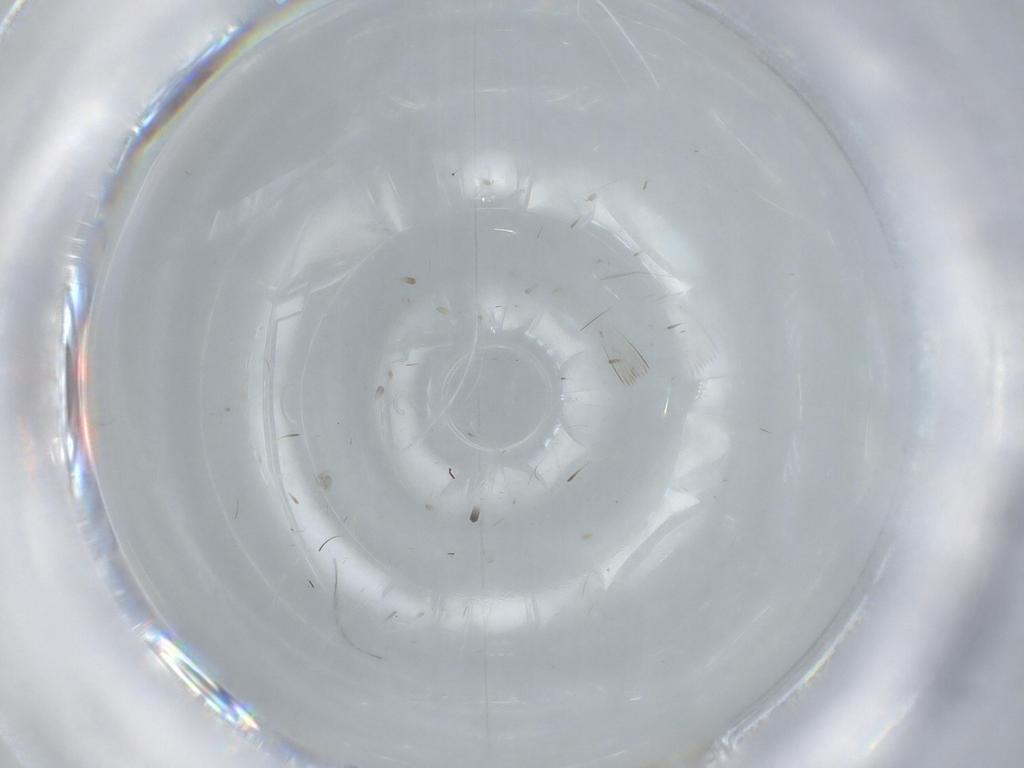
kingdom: Animalia
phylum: Arthropoda
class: Insecta
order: Diptera
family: Cecidomyiidae
